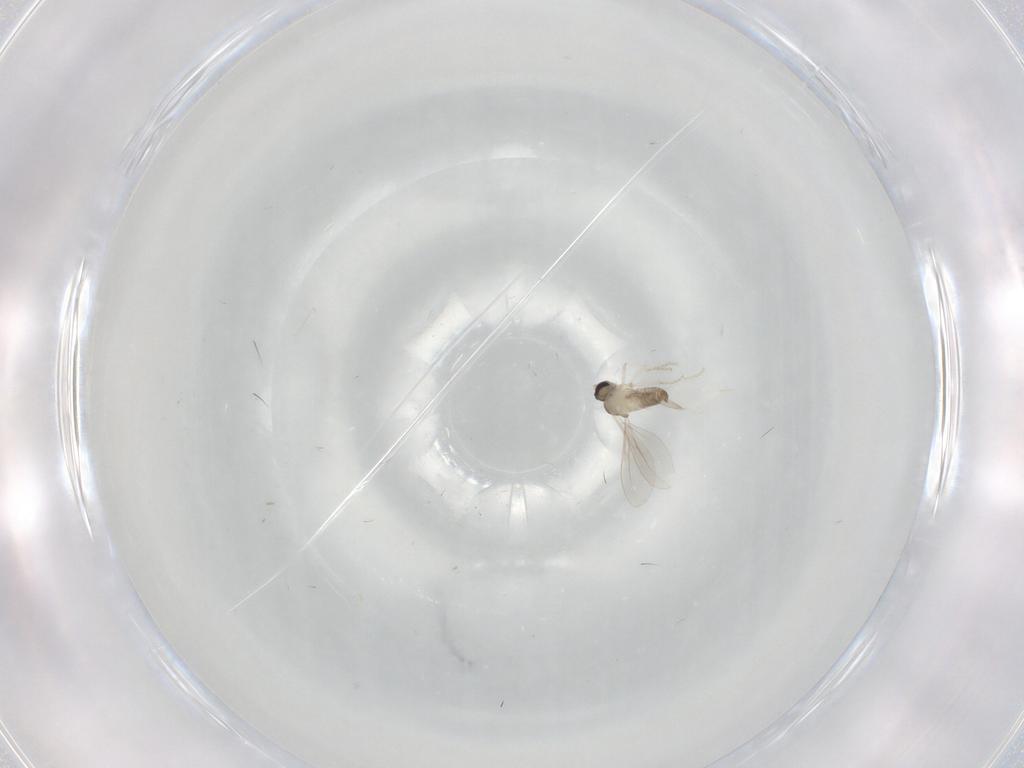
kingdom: Animalia
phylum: Arthropoda
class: Insecta
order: Diptera
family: Cecidomyiidae
